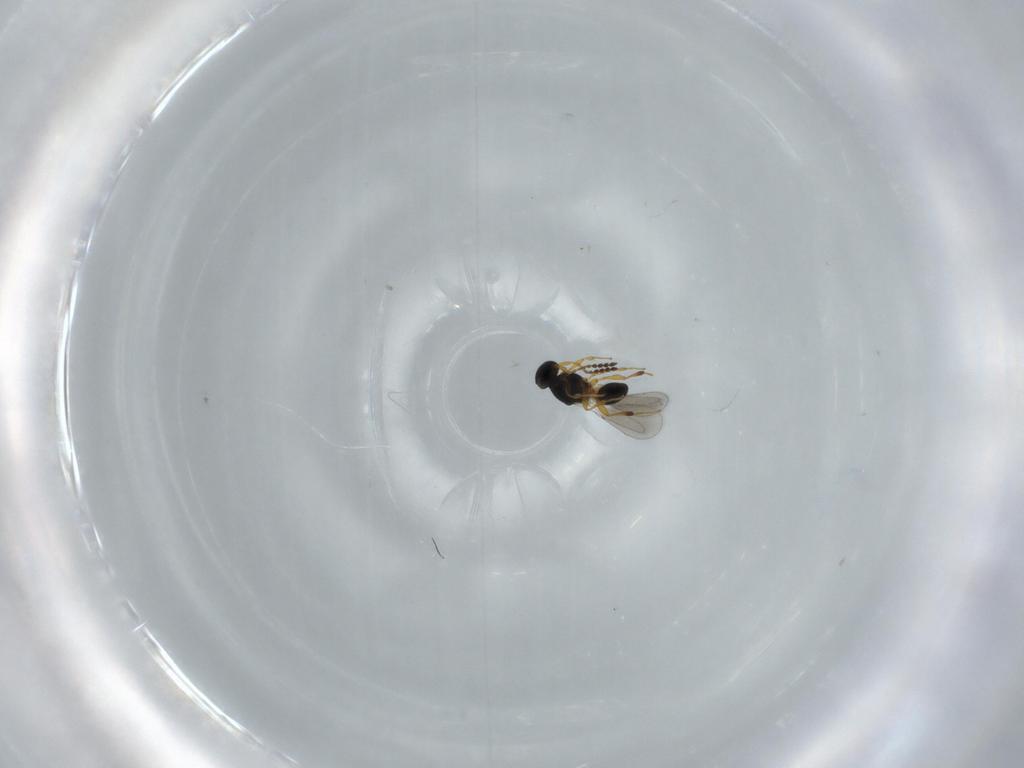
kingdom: Animalia
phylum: Arthropoda
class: Insecta
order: Hymenoptera
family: Platygastridae
